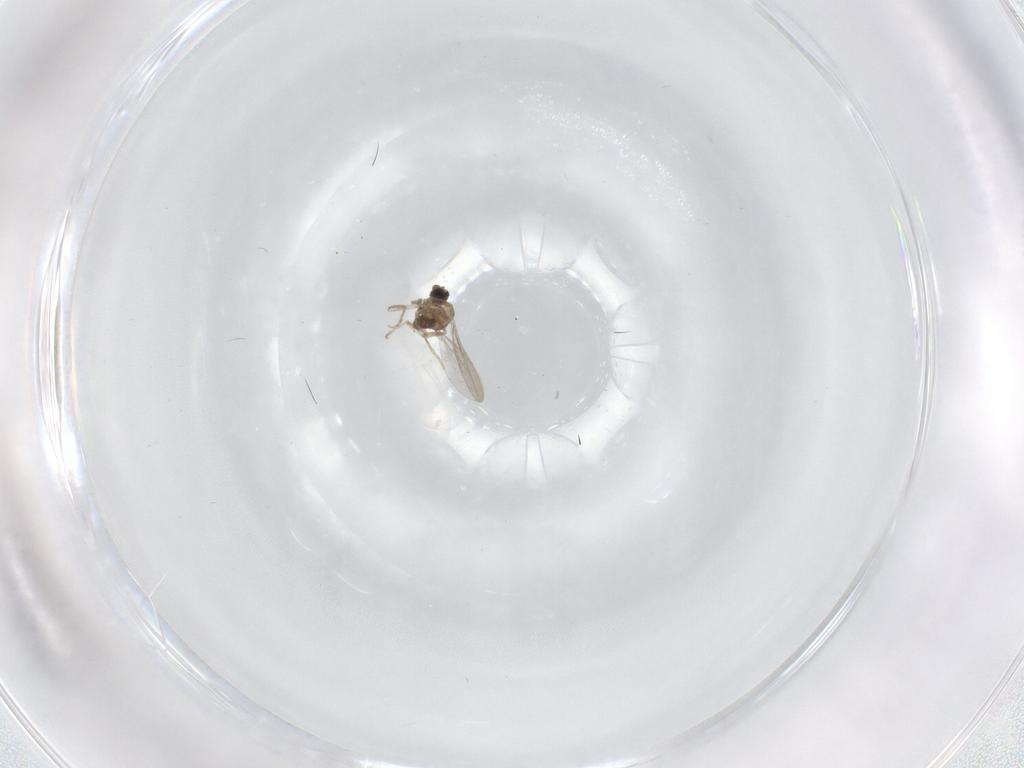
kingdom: Animalia
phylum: Arthropoda
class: Insecta
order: Diptera
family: Cecidomyiidae
